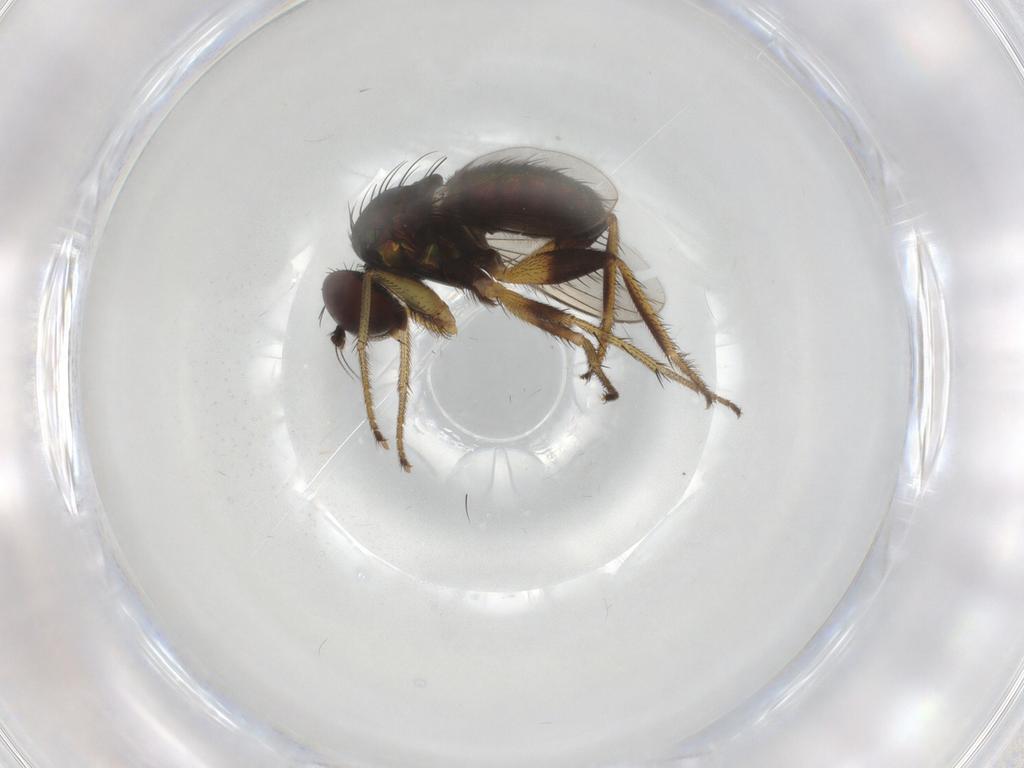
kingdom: Animalia
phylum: Arthropoda
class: Insecta
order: Diptera
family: Dolichopodidae
